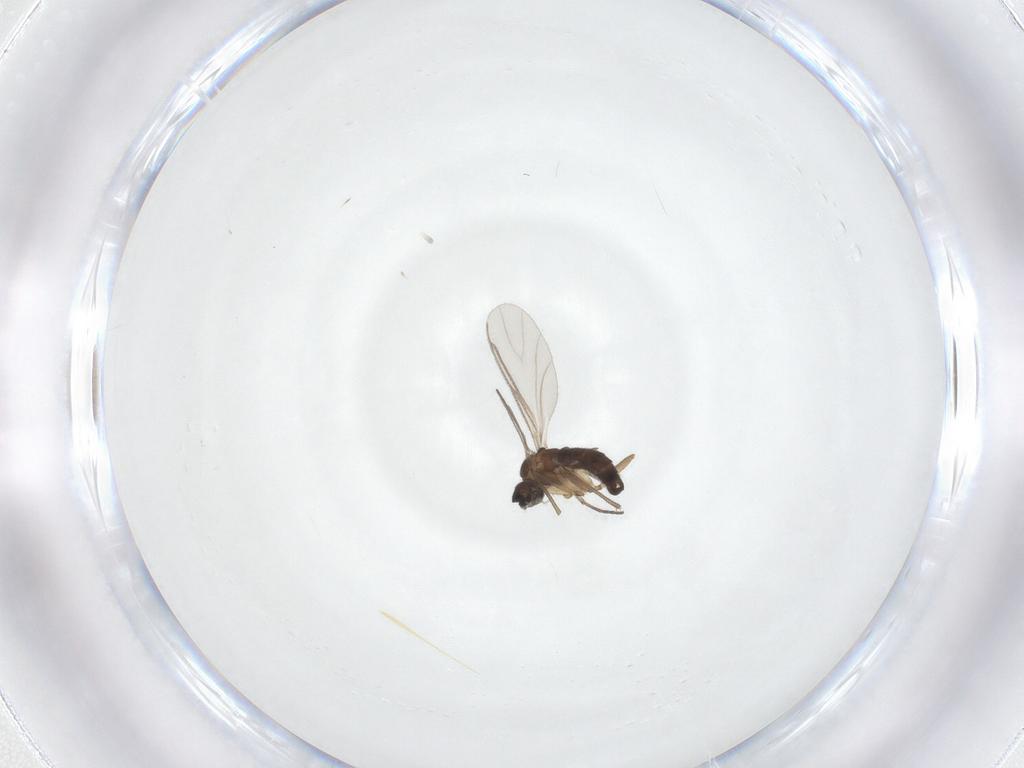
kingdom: Animalia
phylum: Arthropoda
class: Insecta
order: Diptera
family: Sciaridae
